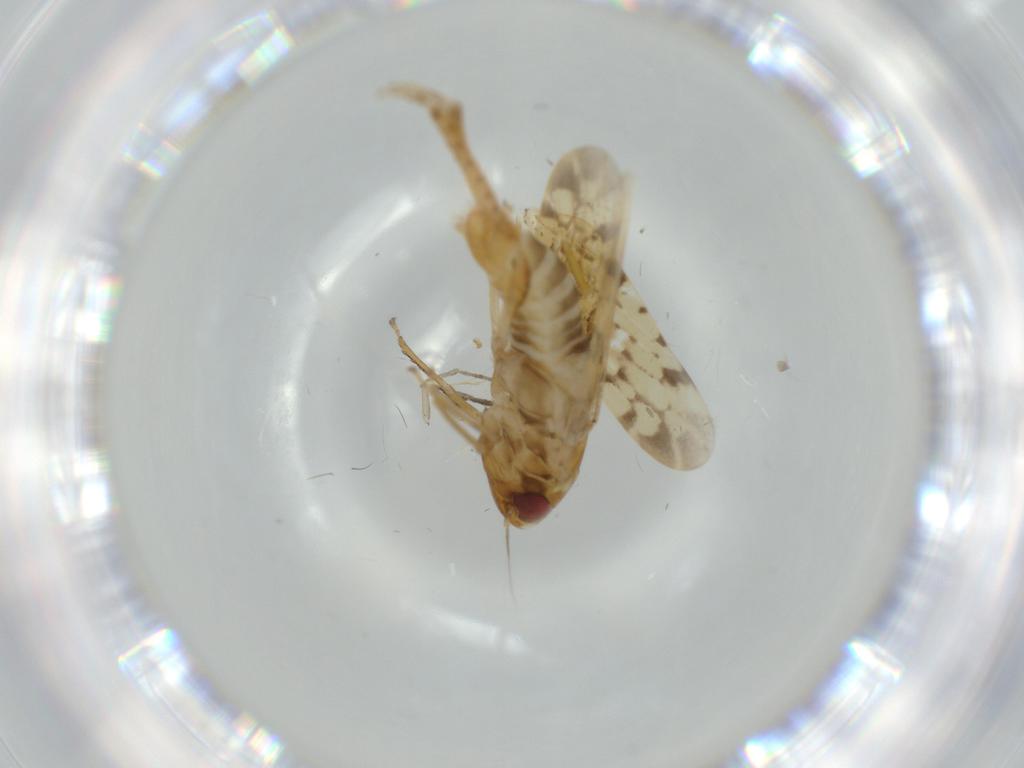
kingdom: Animalia
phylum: Arthropoda
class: Insecta
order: Hemiptera
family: Cicadellidae
